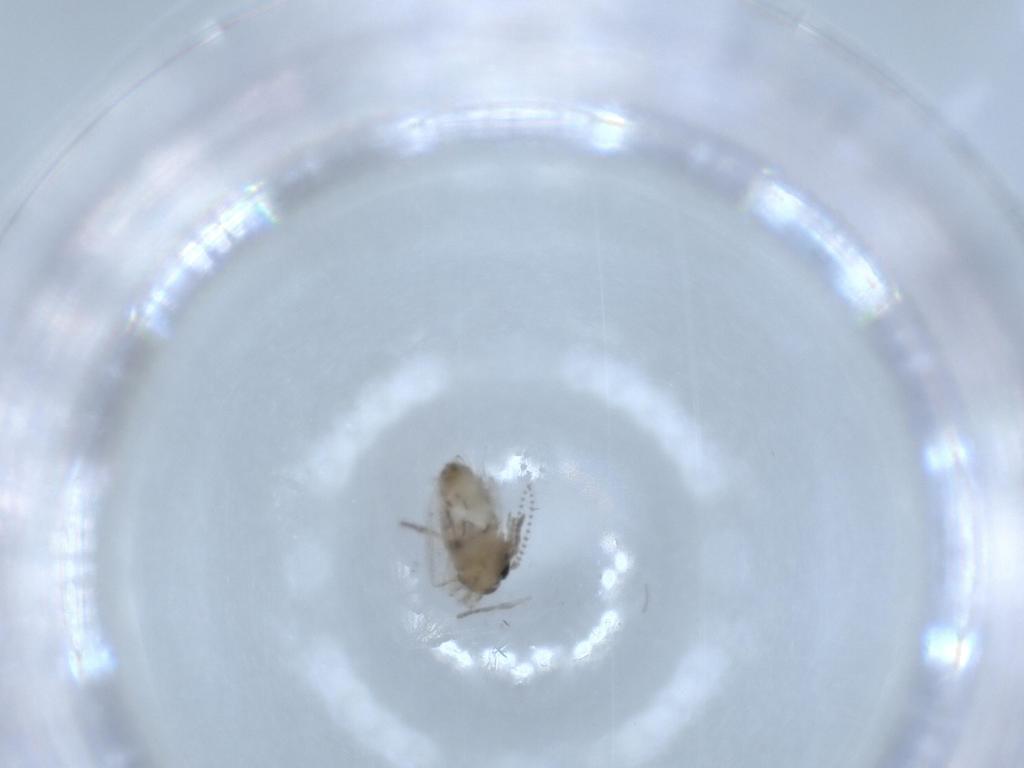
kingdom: Animalia
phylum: Arthropoda
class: Insecta
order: Diptera
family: Psychodidae
